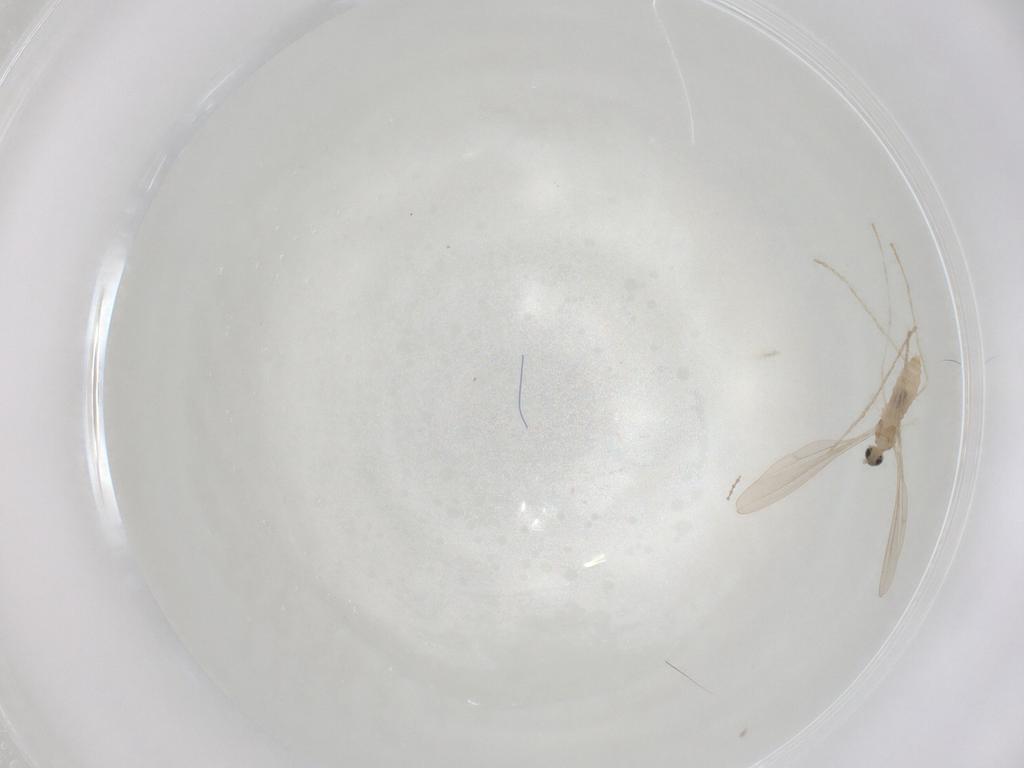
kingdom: Animalia
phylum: Arthropoda
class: Insecta
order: Diptera
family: Cecidomyiidae
